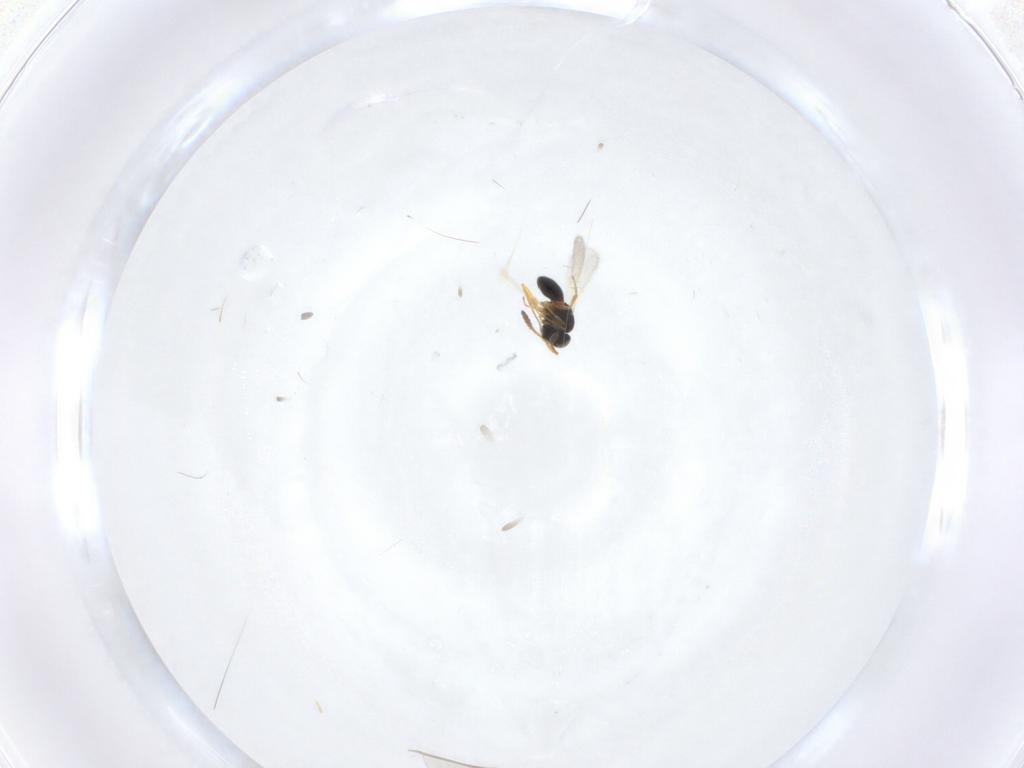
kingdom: Animalia
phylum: Arthropoda
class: Insecta
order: Hymenoptera
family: Scelionidae
